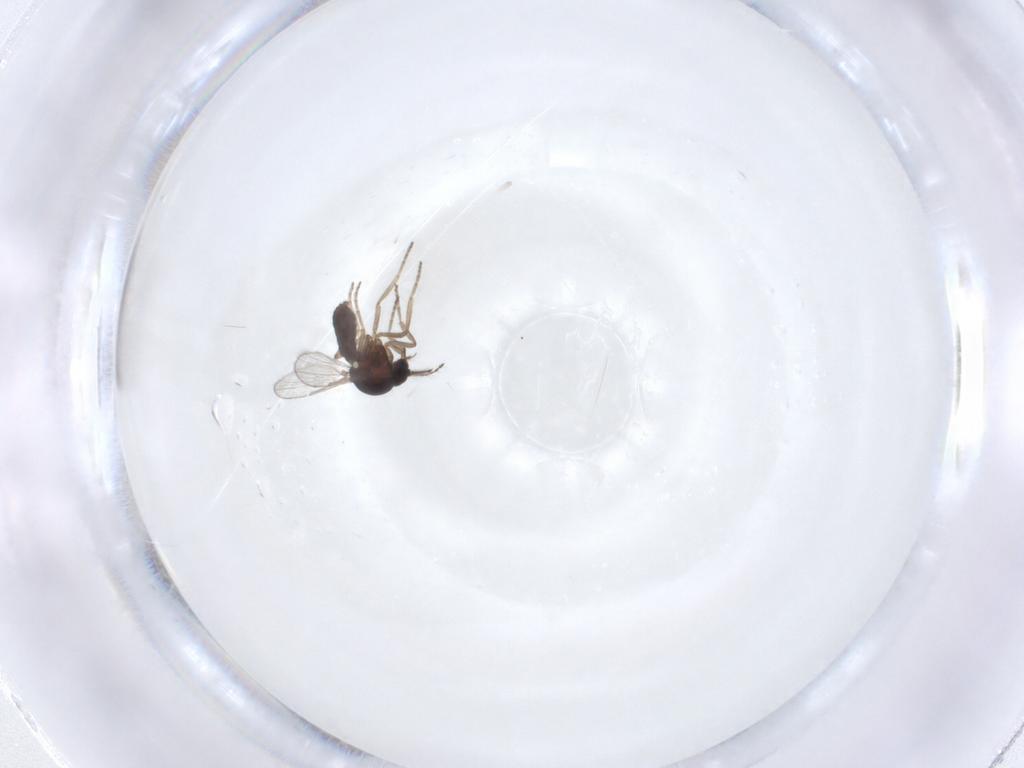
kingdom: Animalia
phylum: Arthropoda
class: Insecta
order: Diptera
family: Ceratopogonidae
